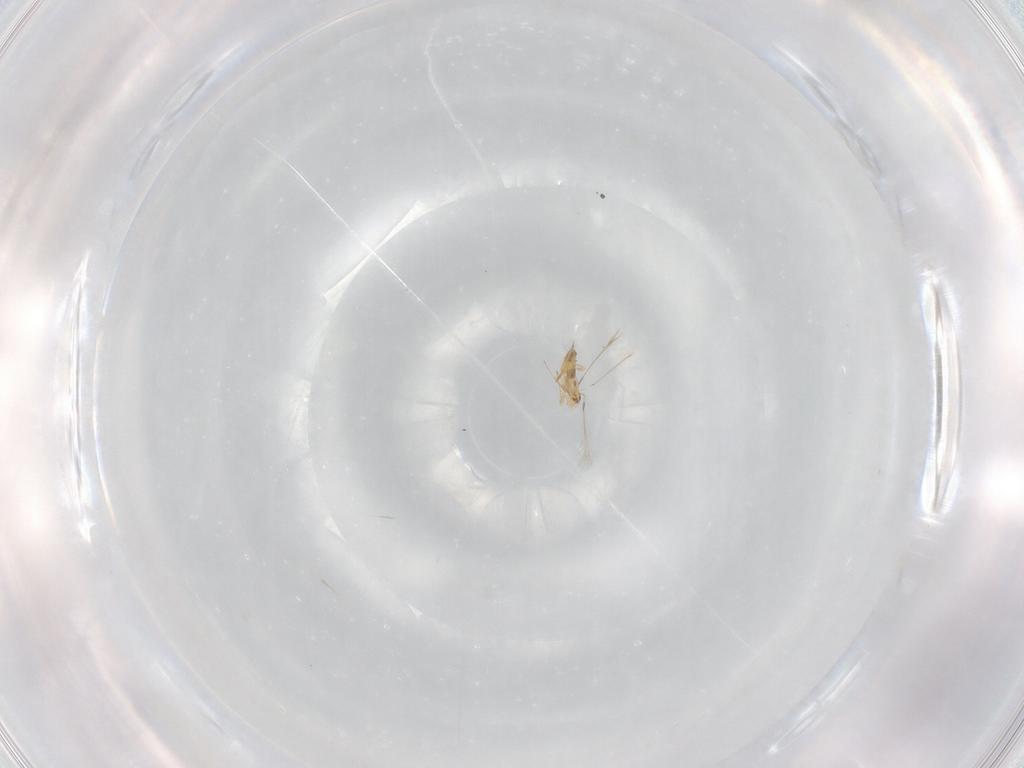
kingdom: Animalia
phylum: Arthropoda
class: Insecta
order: Hymenoptera
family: Mymaridae
